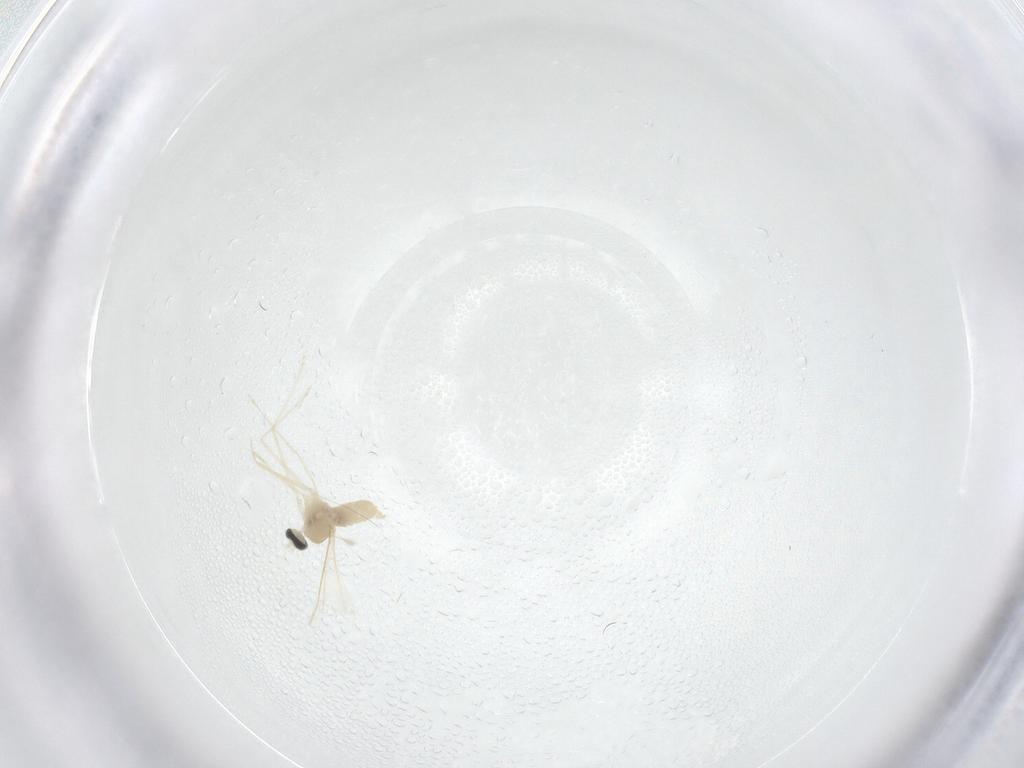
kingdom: Animalia
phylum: Arthropoda
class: Insecta
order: Diptera
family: Cecidomyiidae
